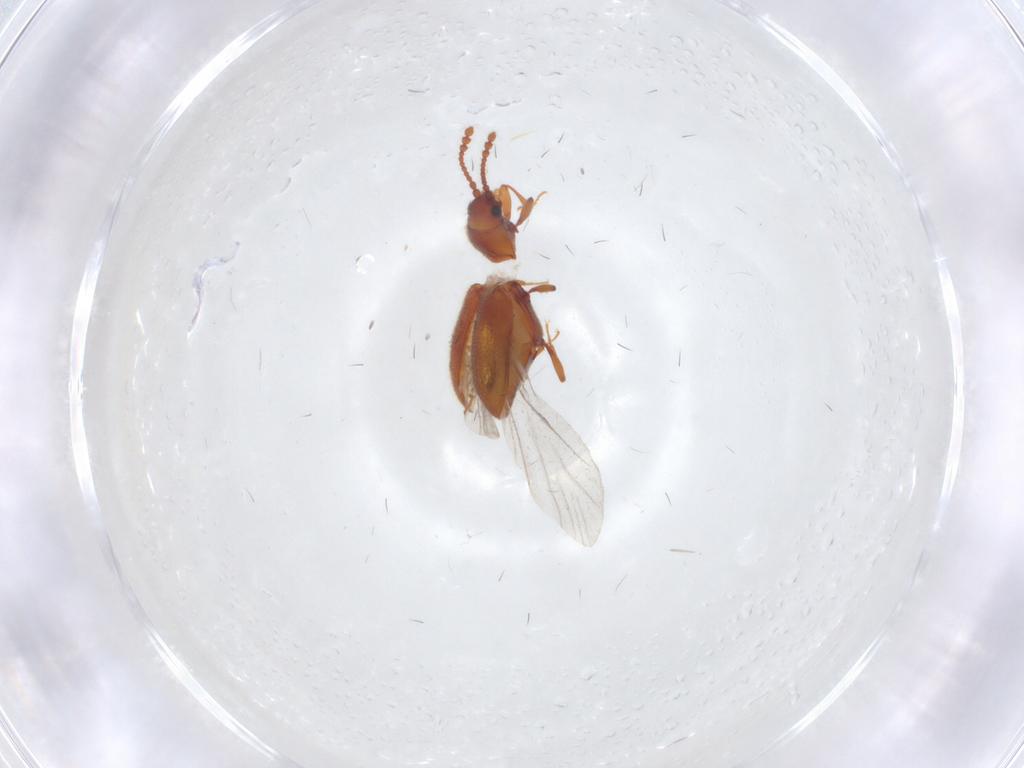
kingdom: Animalia
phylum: Arthropoda
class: Insecta
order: Coleoptera
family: Cryptophagidae
